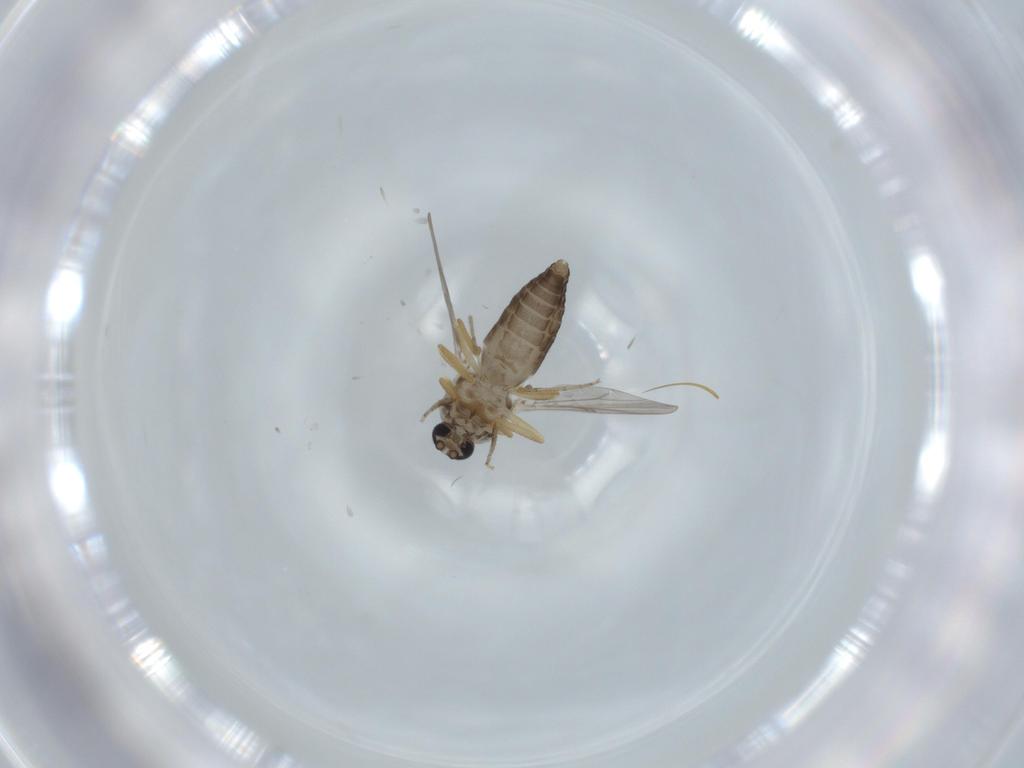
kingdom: Animalia
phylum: Arthropoda
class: Insecta
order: Diptera
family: Ceratopogonidae
